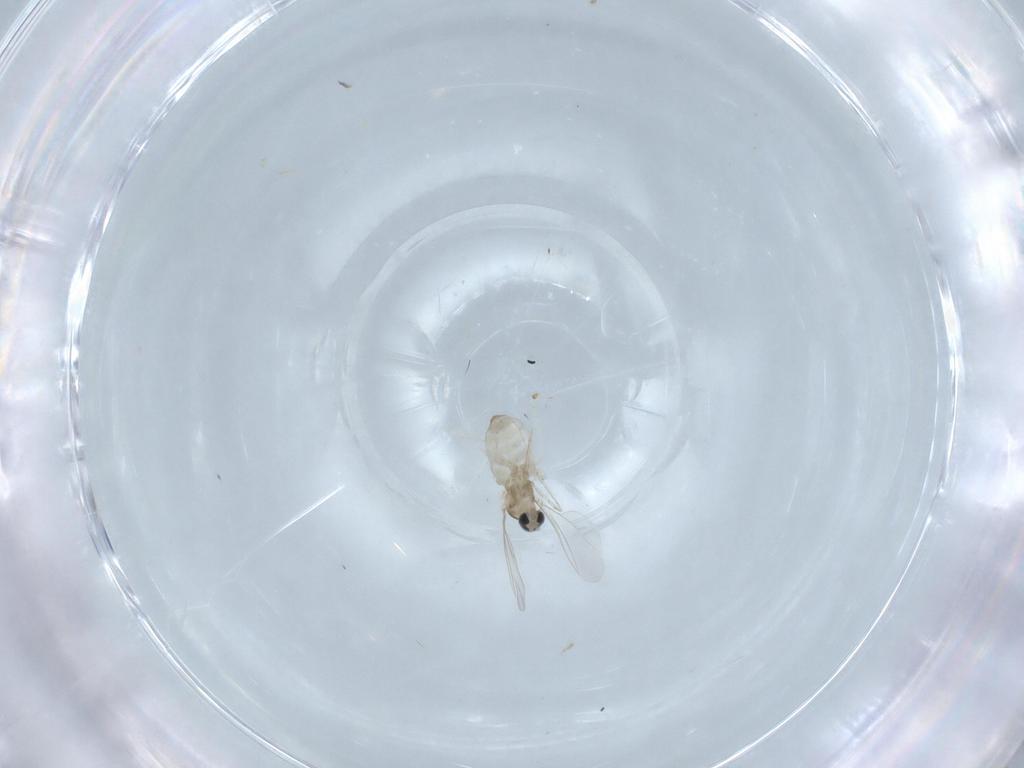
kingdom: Animalia
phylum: Arthropoda
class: Insecta
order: Diptera
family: Cecidomyiidae
